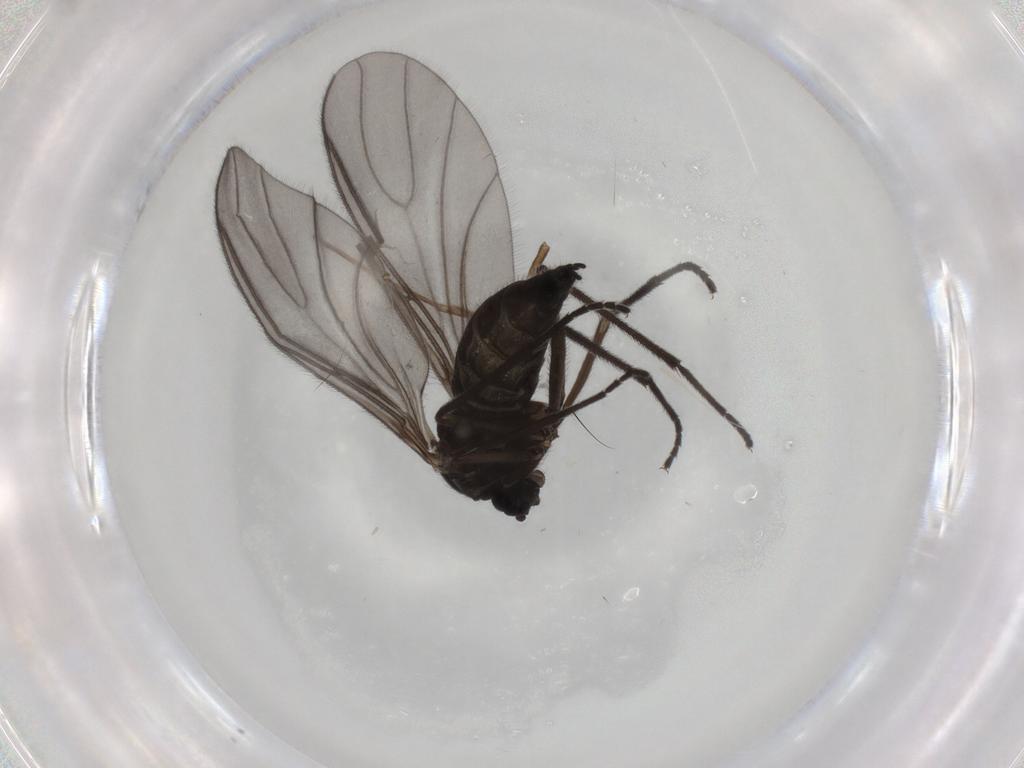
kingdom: Animalia
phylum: Arthropoda
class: Insecta
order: Diptera
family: Sciaridae
